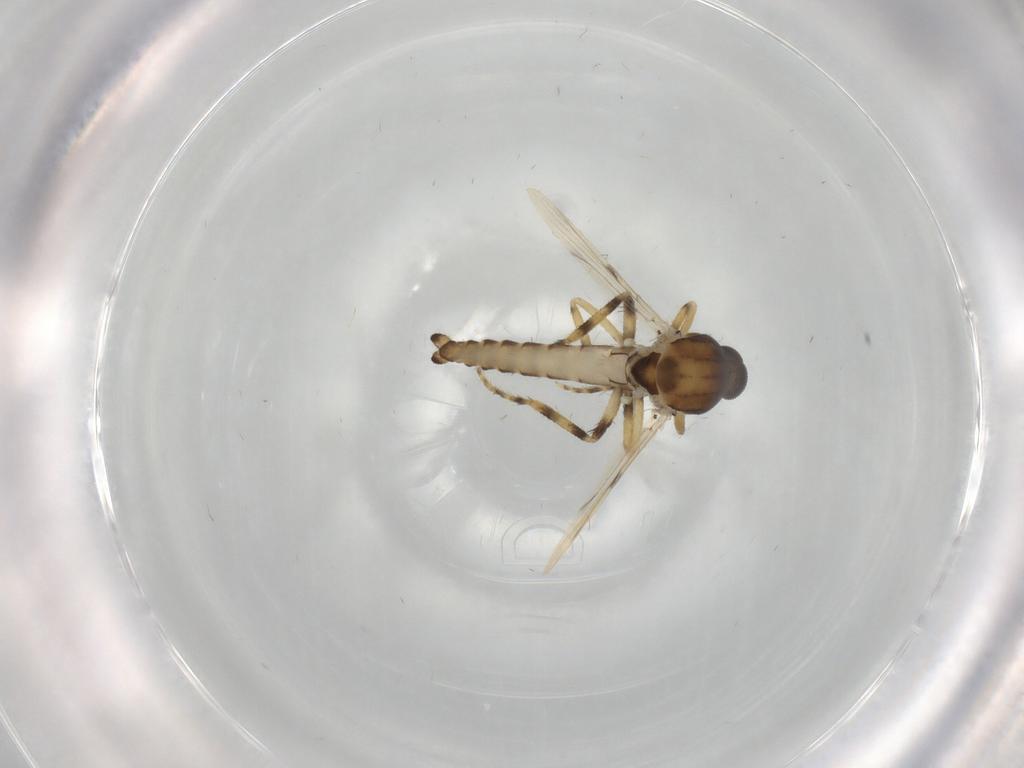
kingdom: Animalia
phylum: Arthropoda
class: Insecta
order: Diptera
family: Ceratopogonidae
